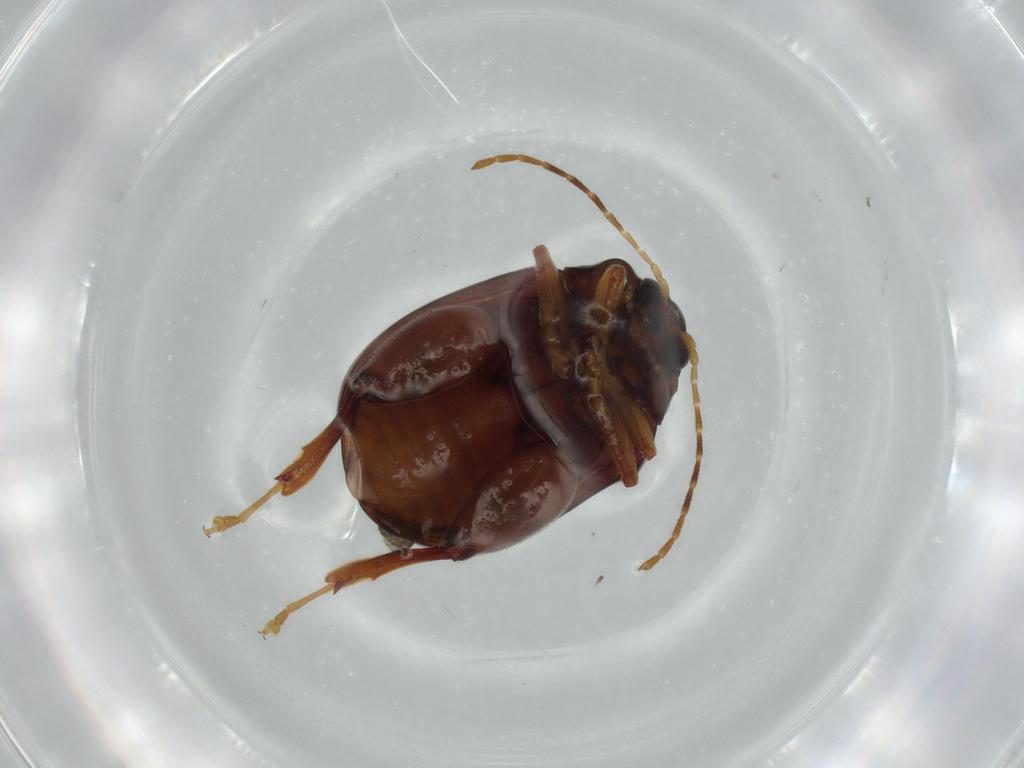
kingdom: Animalia
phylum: Arthropoda
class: Insecta
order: Coleoptera
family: Chrysomelidae
